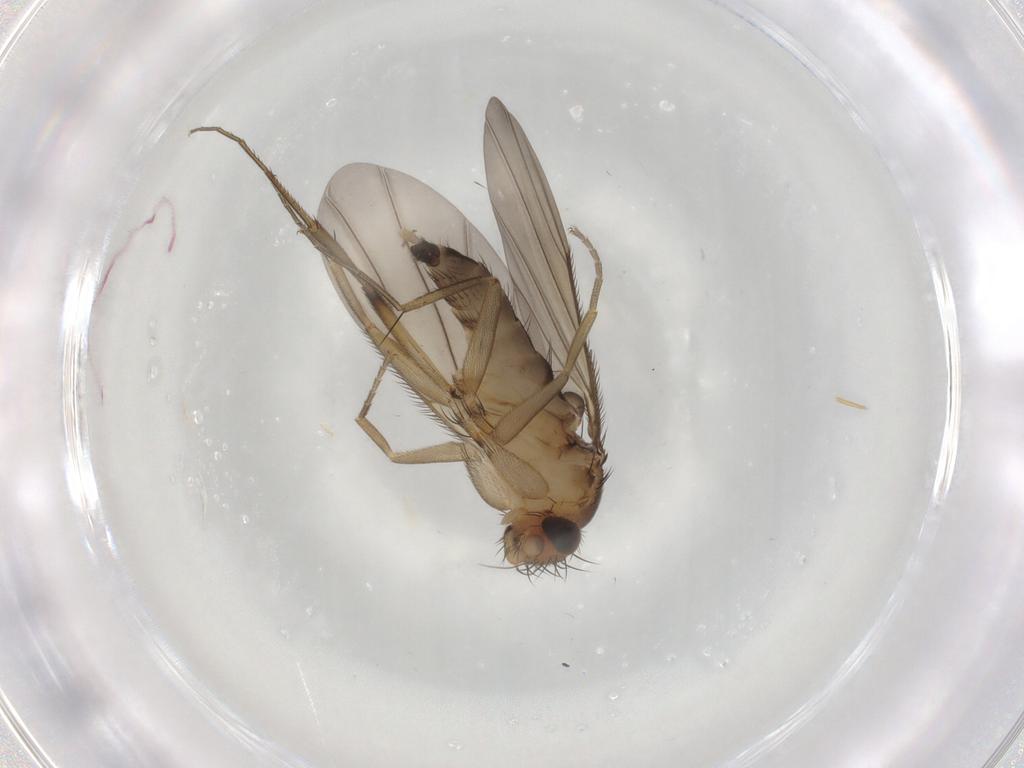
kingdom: Animalia
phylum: Arthropoda
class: Insecta
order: Diptera
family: Phoridae
